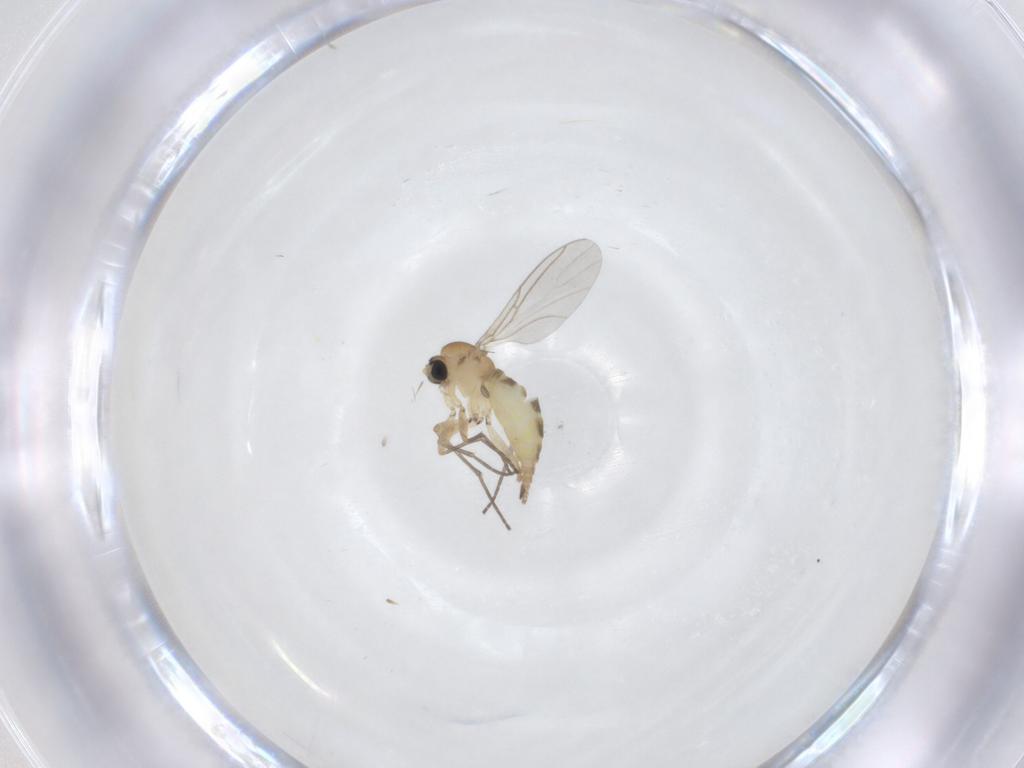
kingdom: Animalia
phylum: Arthropoda
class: Insecta
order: Diptera
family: Sciaridae
